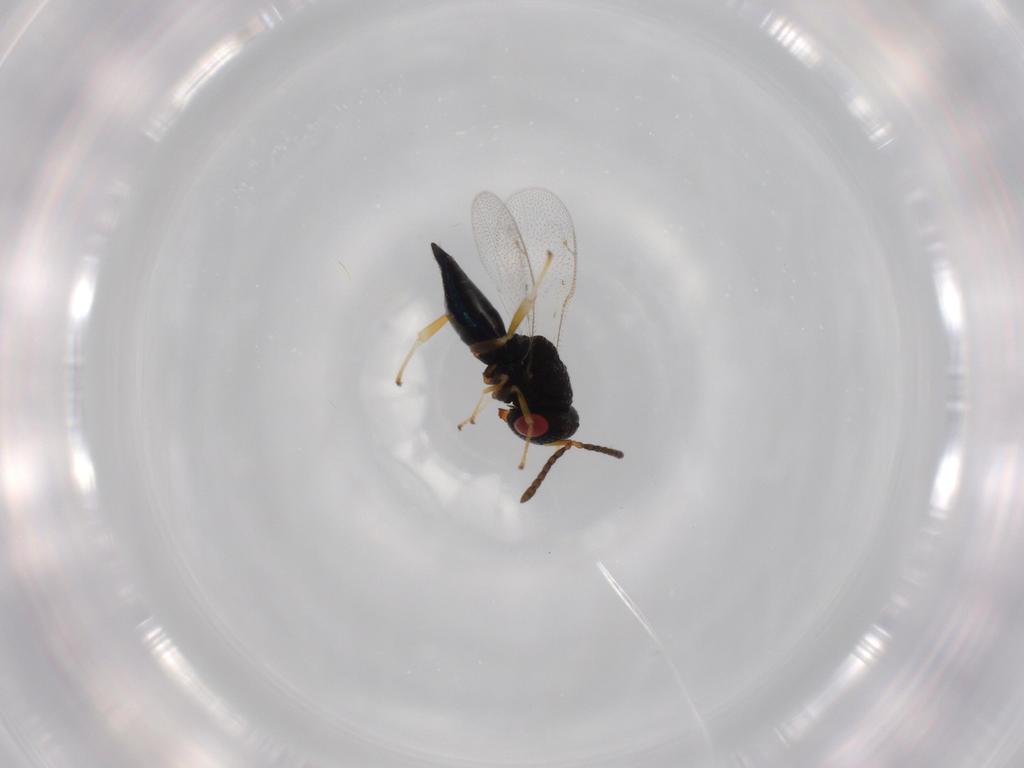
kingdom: Animalia
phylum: Arthropoda
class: Insecta
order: Hymenoptera
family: Pteromalidae
